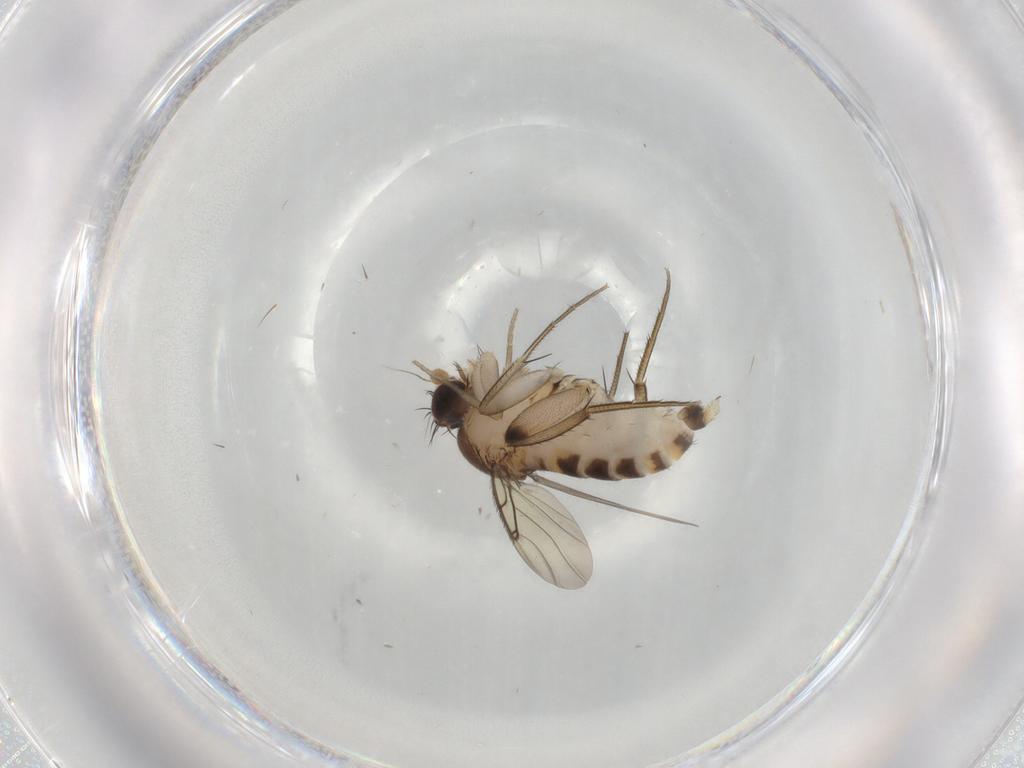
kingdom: Animalia
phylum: Arthropoda
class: Insecta
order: Diptera
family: Phoridae
